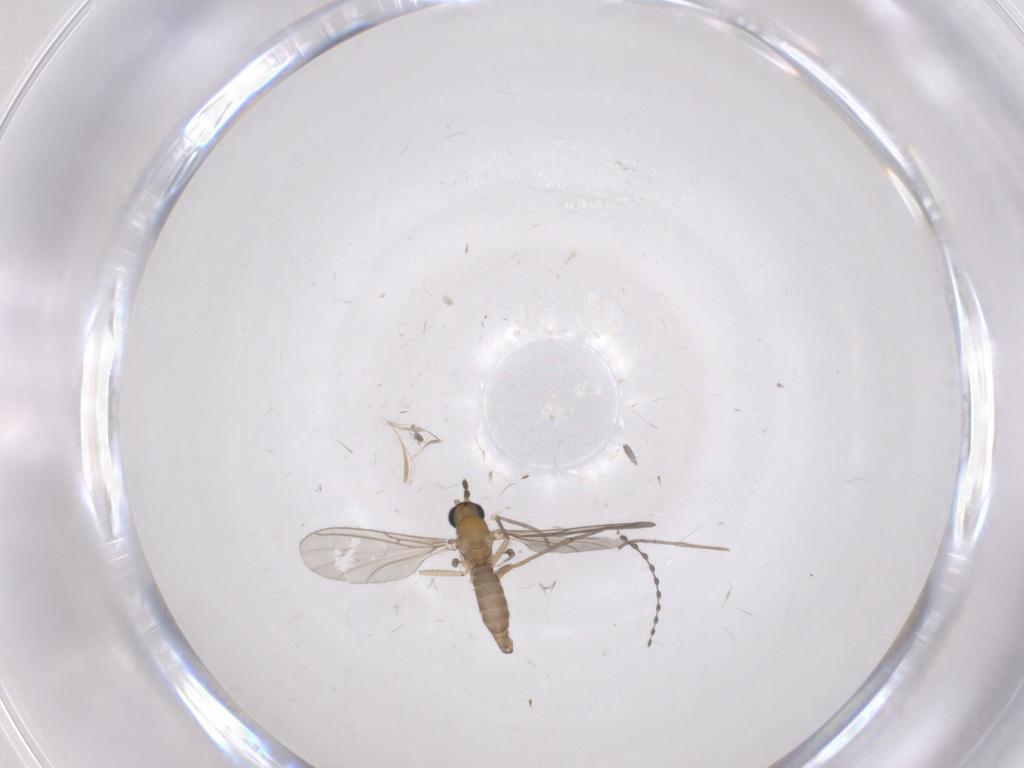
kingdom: Animalia
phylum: Arthropoda
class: Insecta
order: Diptera
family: Sciaridae
